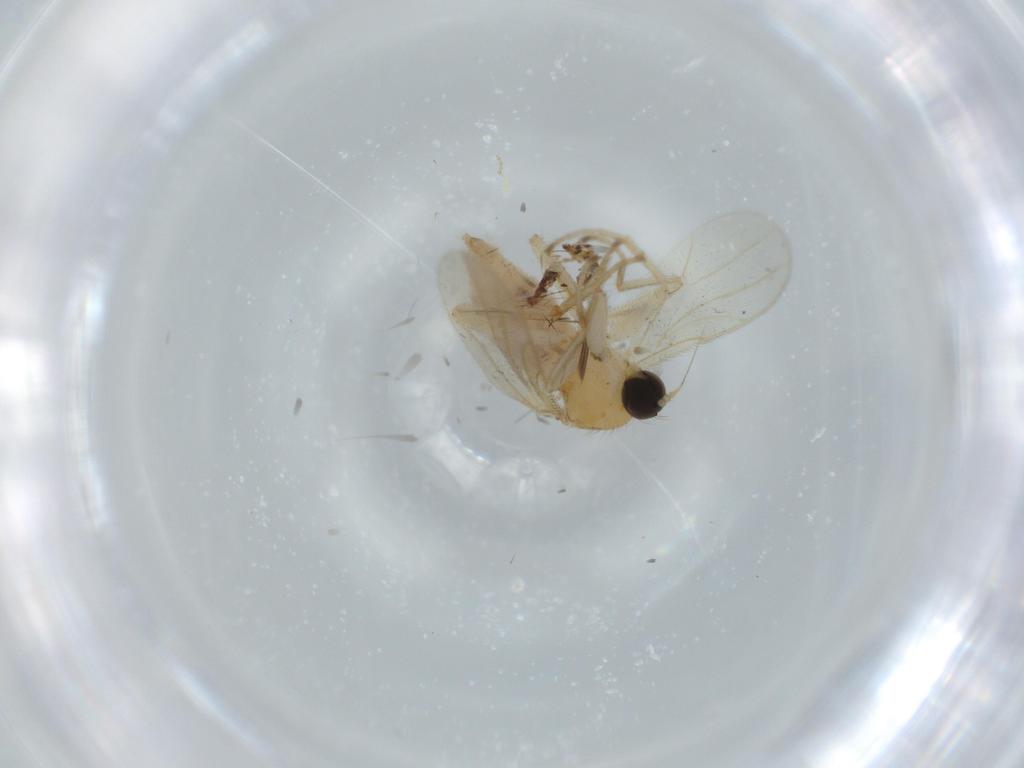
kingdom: Animalia
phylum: Arthropoda
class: Insecta
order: Diptera
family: Hybotidae
